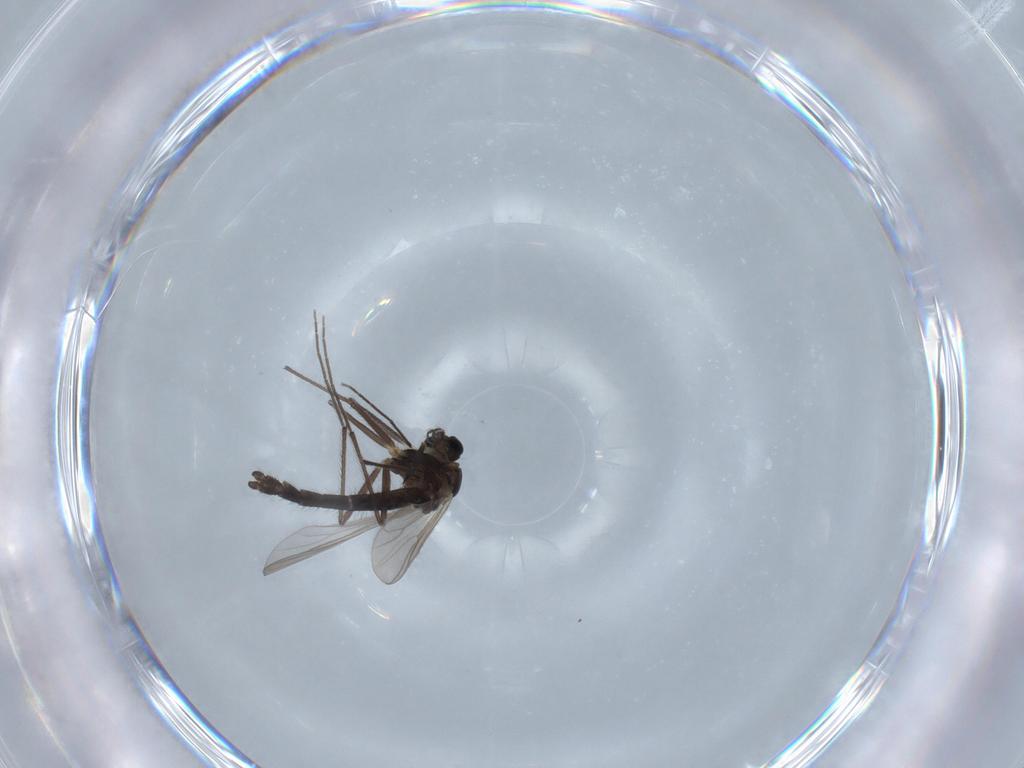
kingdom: Animalia
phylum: Arthropoda
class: Insecta
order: Diptera
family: Chironomidae
